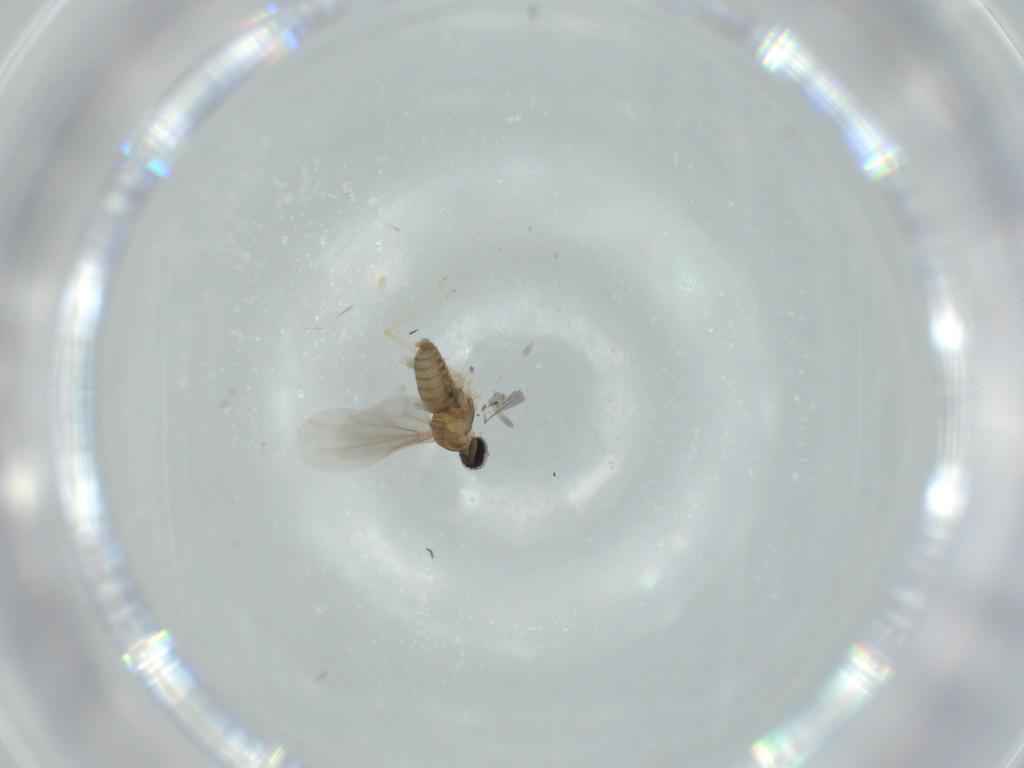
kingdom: Animalia
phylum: Arthropoda
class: Insecta
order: Diptera
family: Cecidomyiidae
